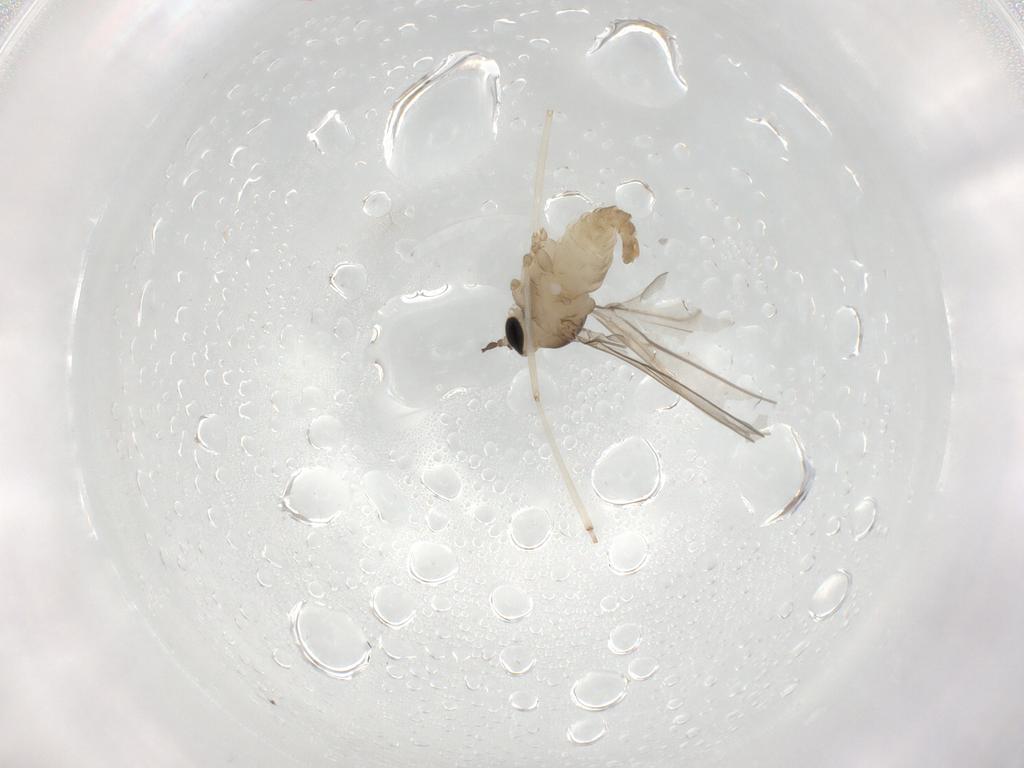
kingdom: Animalia
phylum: Arthropoda
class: Insecta
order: Diptera
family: Cecidomyiidae
